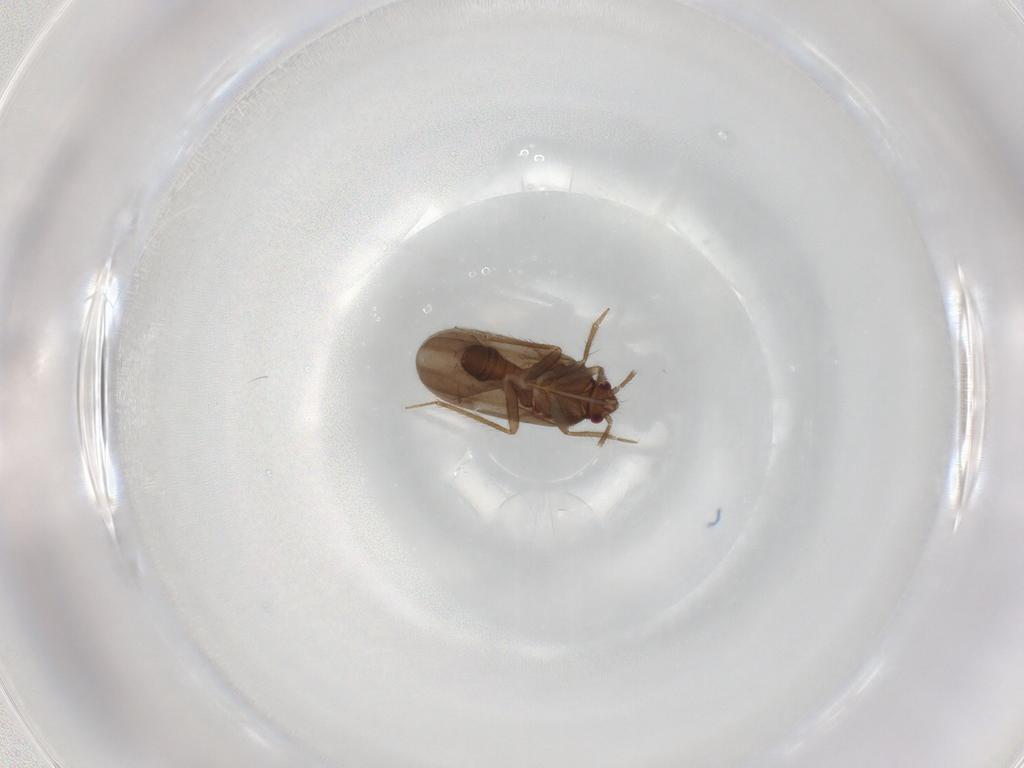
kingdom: Animalia
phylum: Arthropoda
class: Insecta
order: Hemiptera
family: Ceratocombidae
